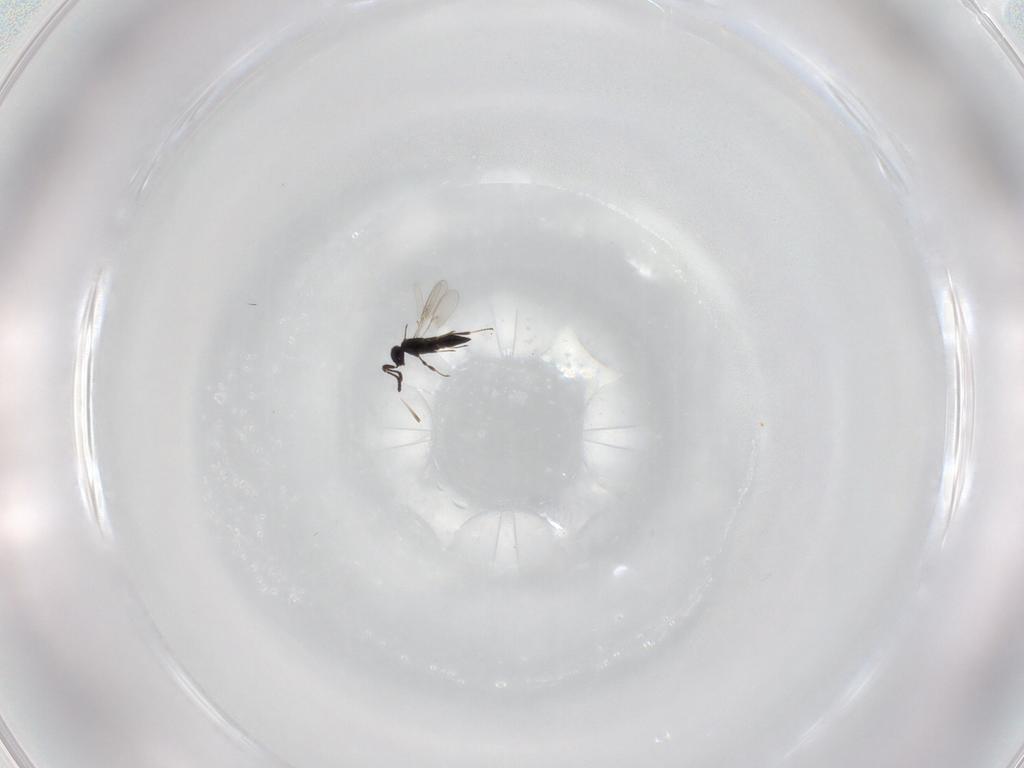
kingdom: Animalia
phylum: Arthropoda
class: Insecta
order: Hymenoptera
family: Scelionidae
